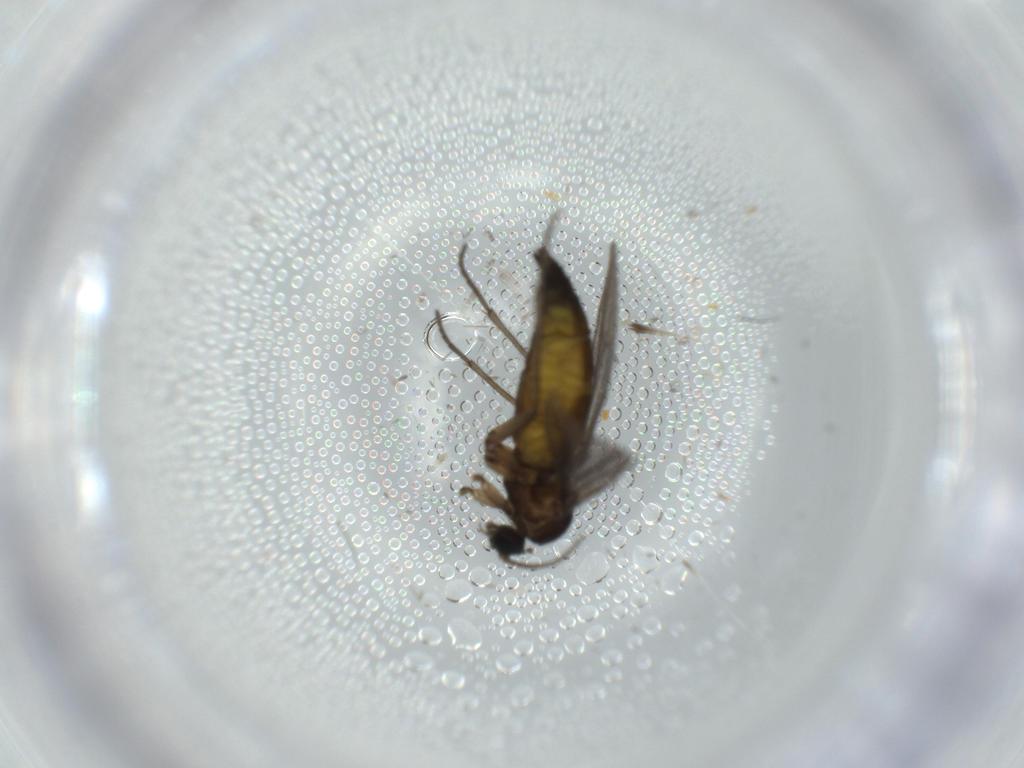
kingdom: Animalia
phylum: Arthropoda
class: Insecta
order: Diptera
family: Sciaridae
